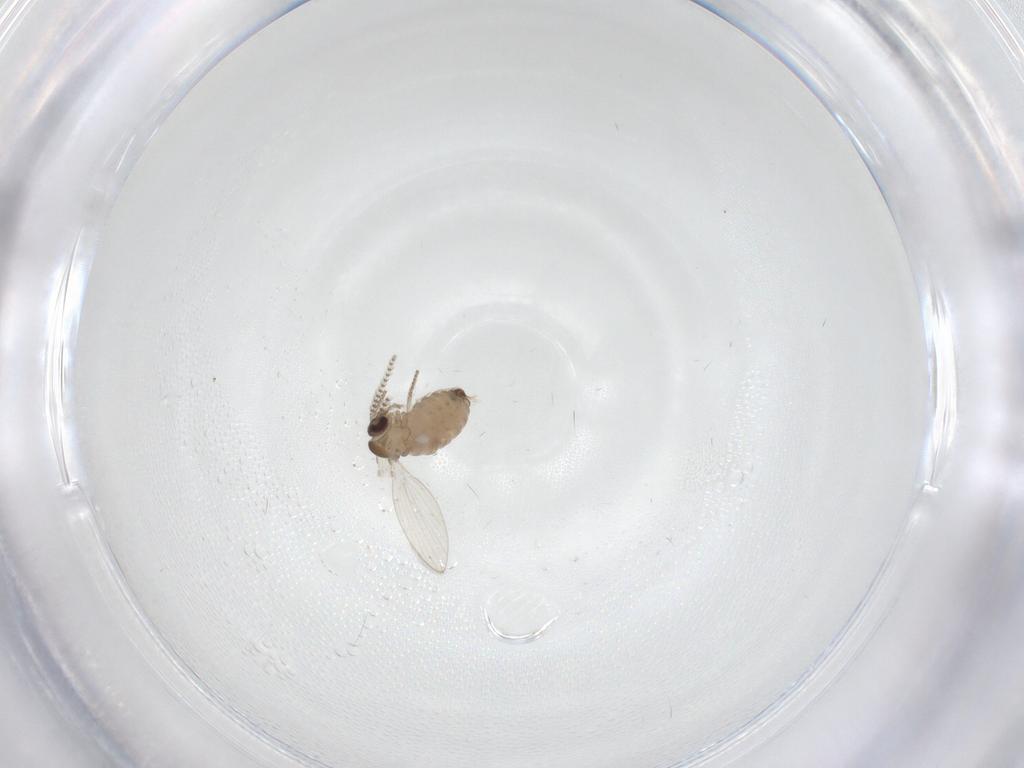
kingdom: Animalia
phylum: Arthropoda
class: Insecta
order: Diptera
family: Psychodidae
